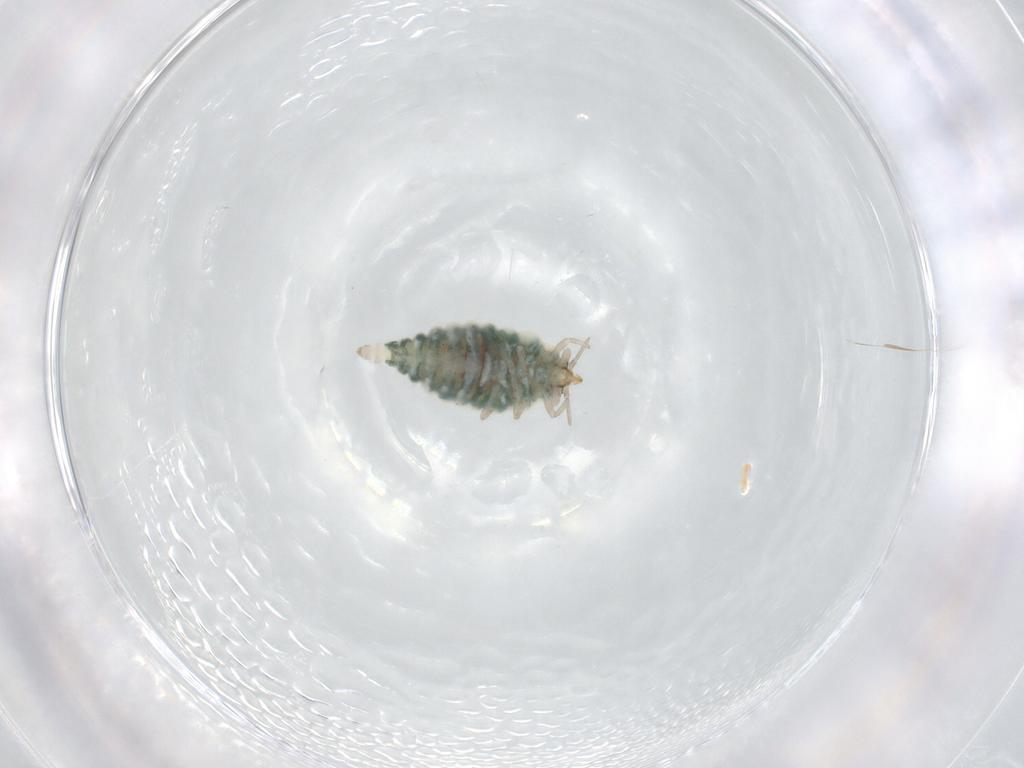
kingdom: Animalia
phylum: Arthropoda
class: Insecta
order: Neuroptera
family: Coniopterygidae
